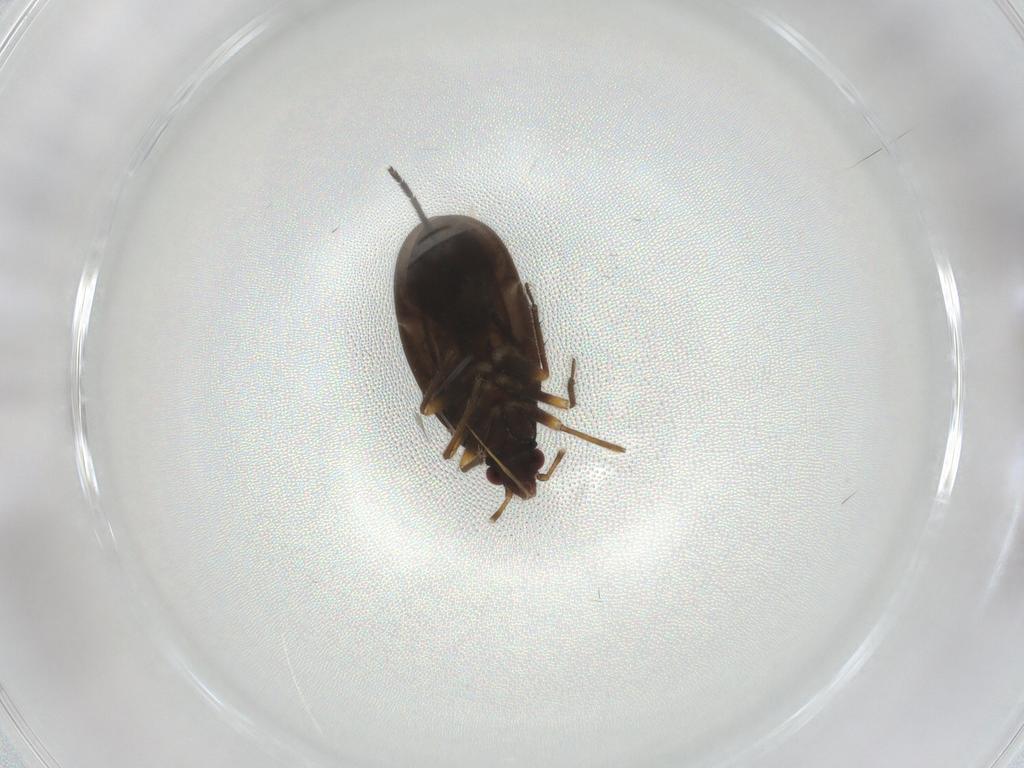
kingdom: Animalia
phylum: Arthropoda
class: Insecta
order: Hemiptera
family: Ceratocombidae
